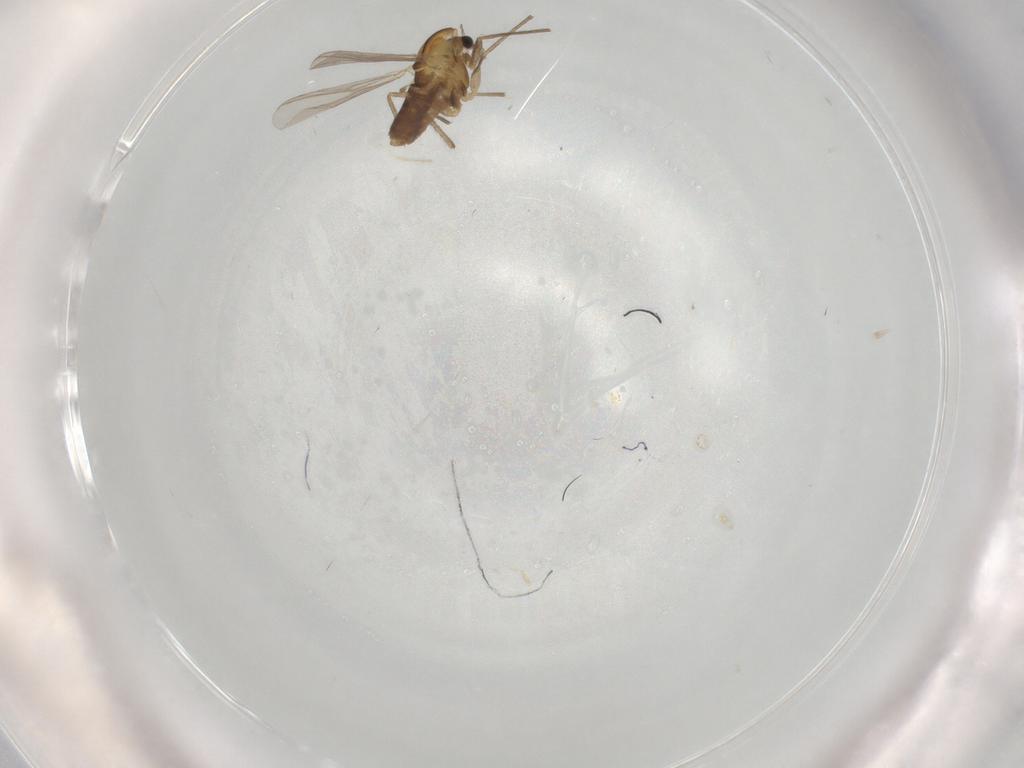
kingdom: Animalia
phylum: Arthropoda
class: Insecta
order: Diptera
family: Chironomidae
